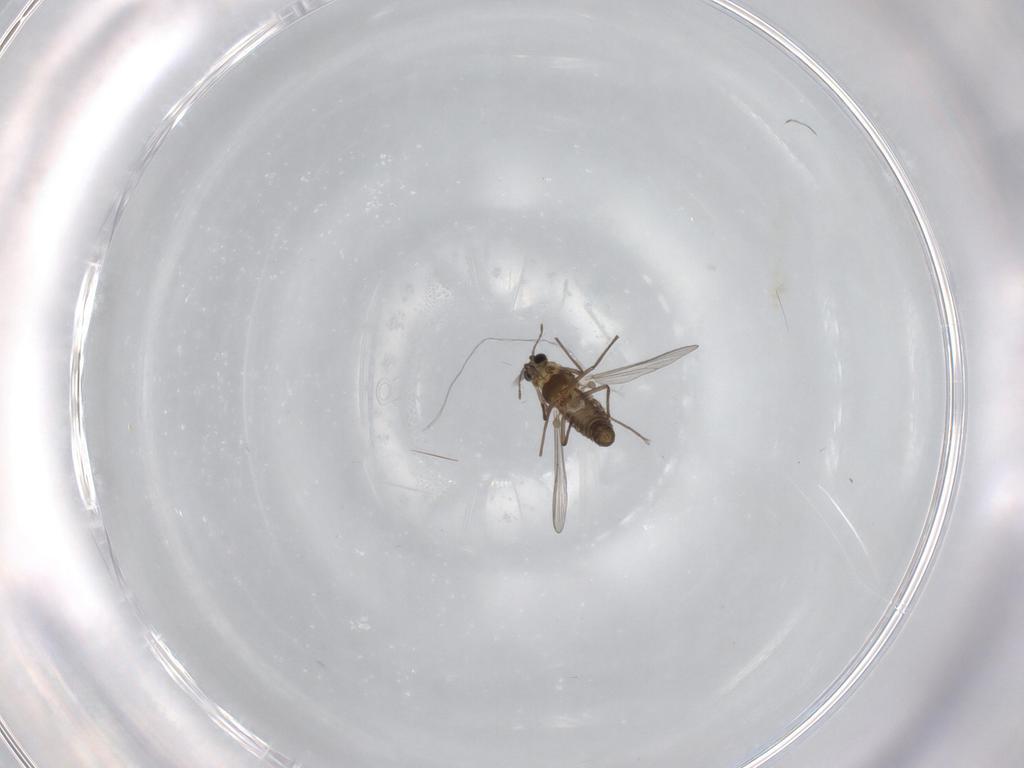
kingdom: Animalia
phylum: Arthropoda
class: Insecta
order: Diptera
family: Chironomidae
